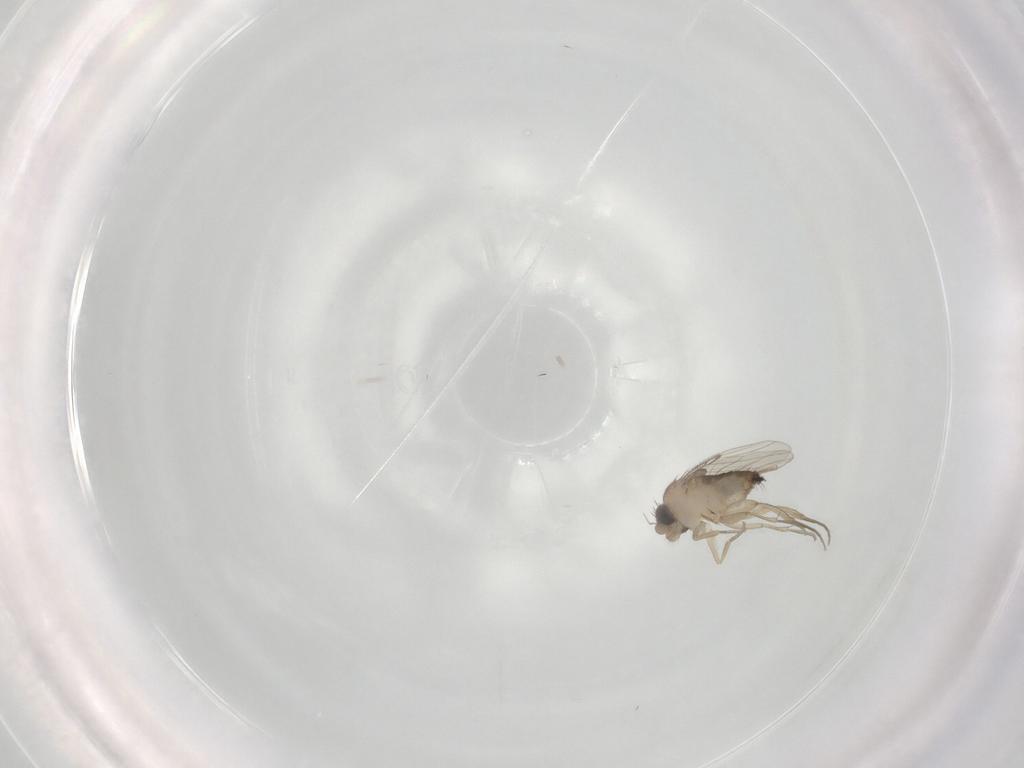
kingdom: Animalia
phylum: Arthropoda
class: Insecta
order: Diptera
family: Phoridae
